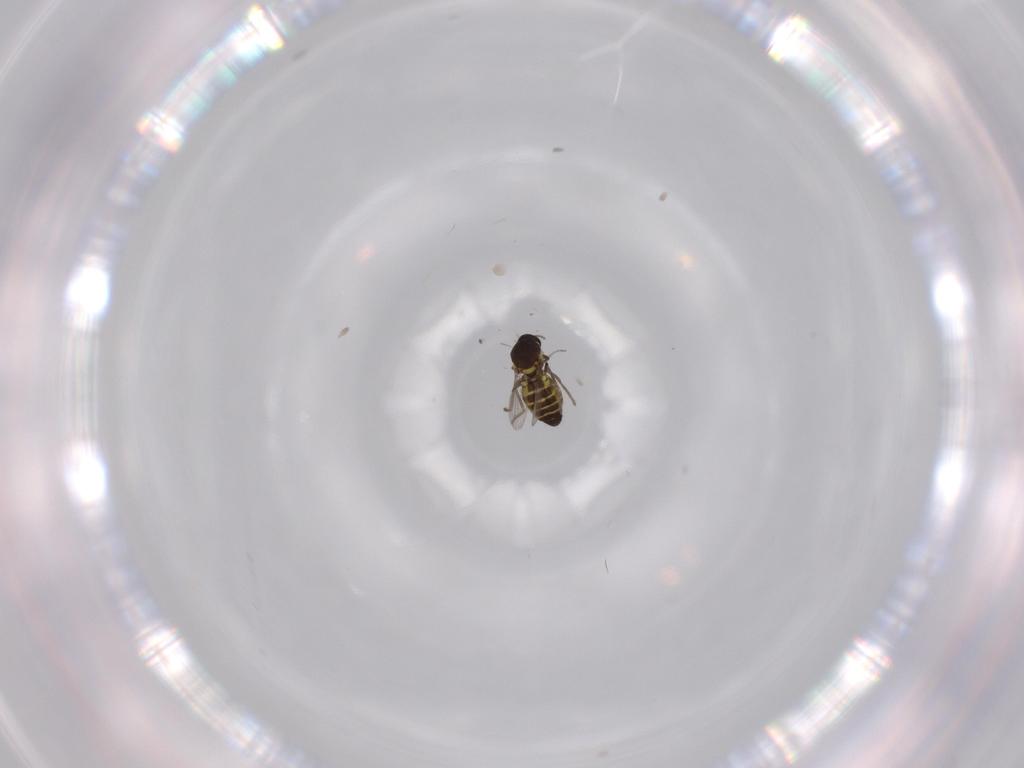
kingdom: Animalia
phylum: Arthropoda
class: Insecta
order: Diptera
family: Ceratopogonidae
